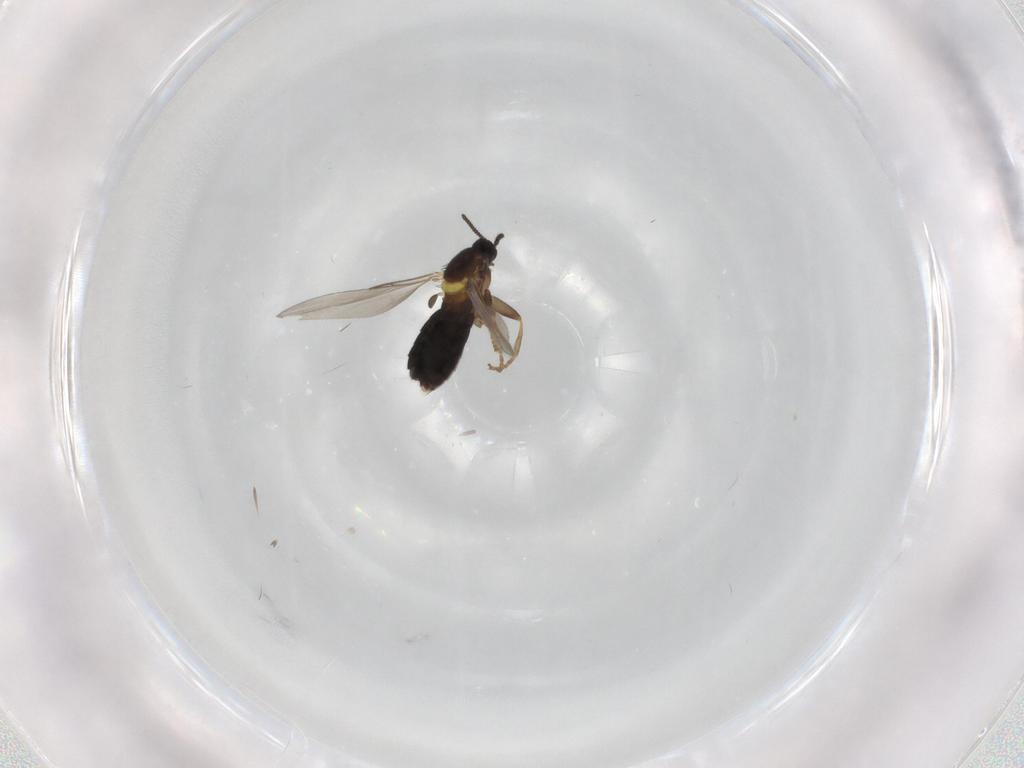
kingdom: Animalia
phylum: Arthropoda
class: Insecta
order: Diptera
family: Scatopsidae
